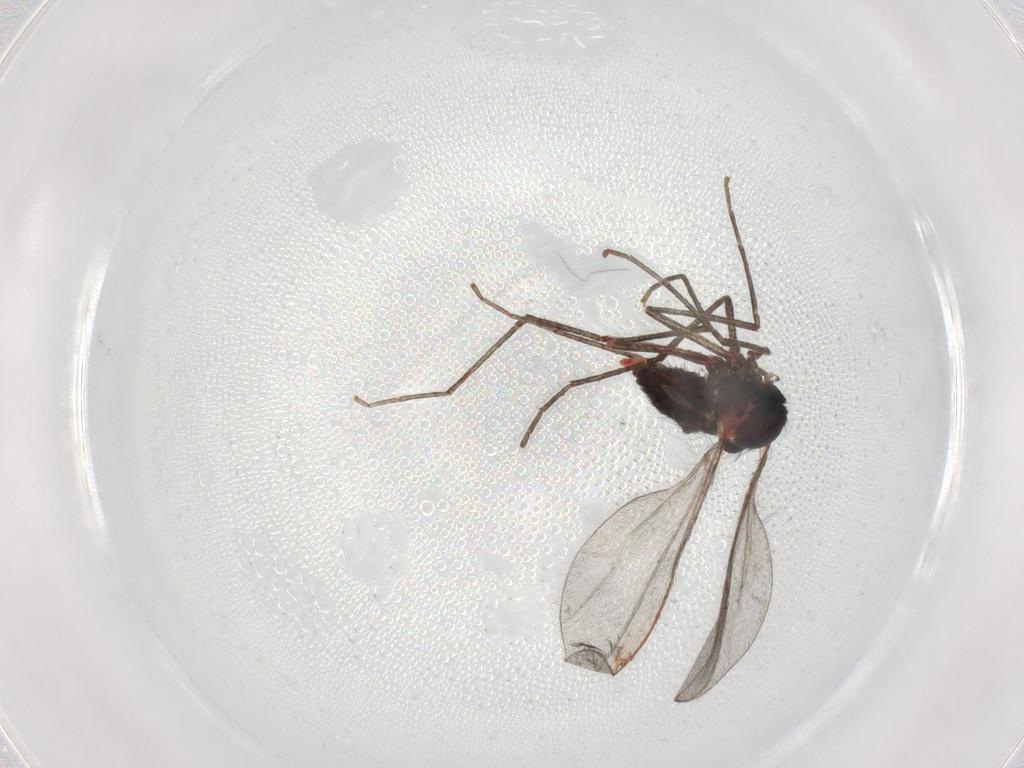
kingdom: Animalia
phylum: Arthropoda
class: Insecta
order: Diptera
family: Cecidomyiidae
